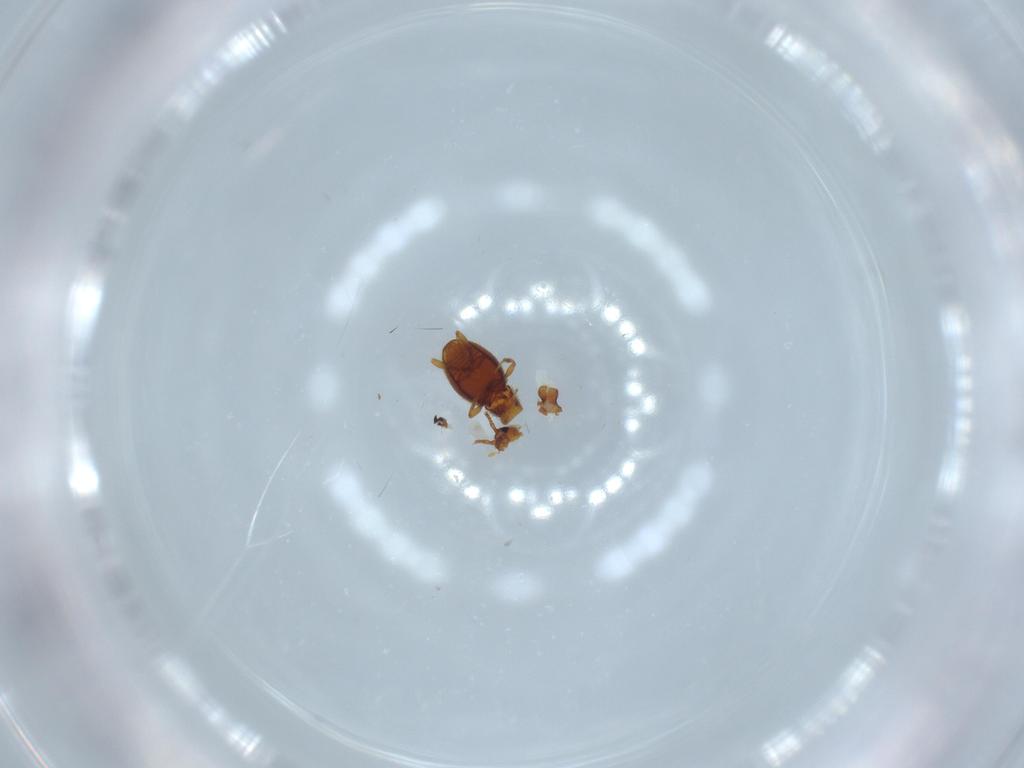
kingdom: Animalia
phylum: Arthropoda
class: Insecta
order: Coleoptera
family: Staphylinidae
